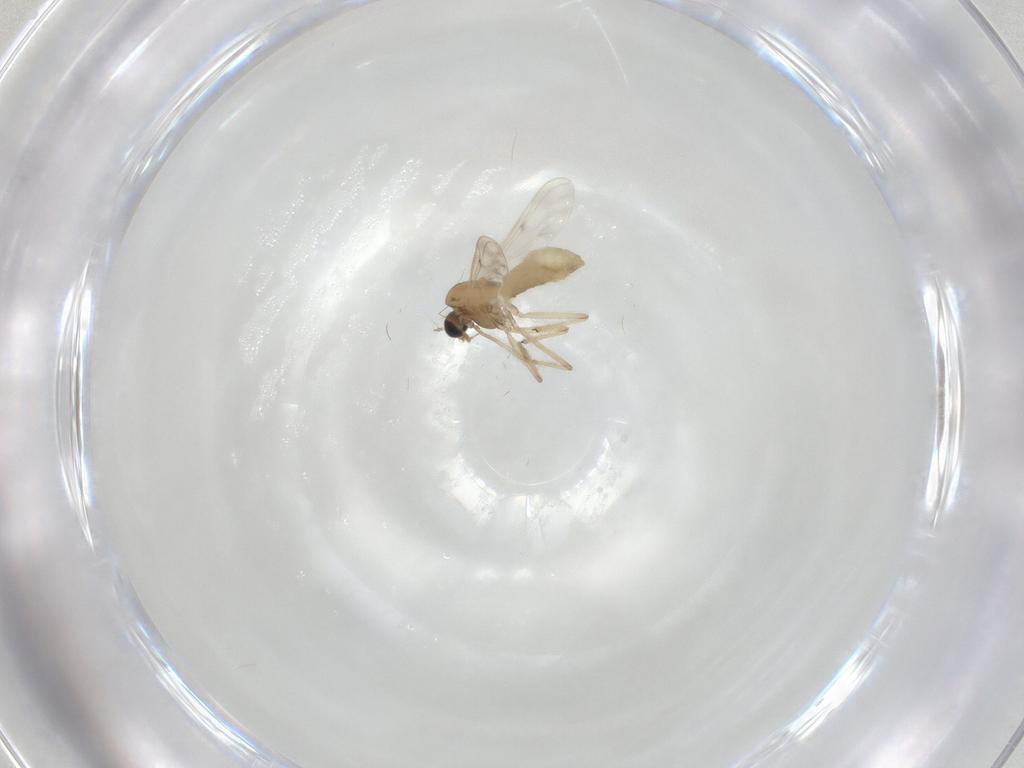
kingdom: Animalia
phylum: Arthropoda
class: Insecta
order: Diptera
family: Chironomidae
